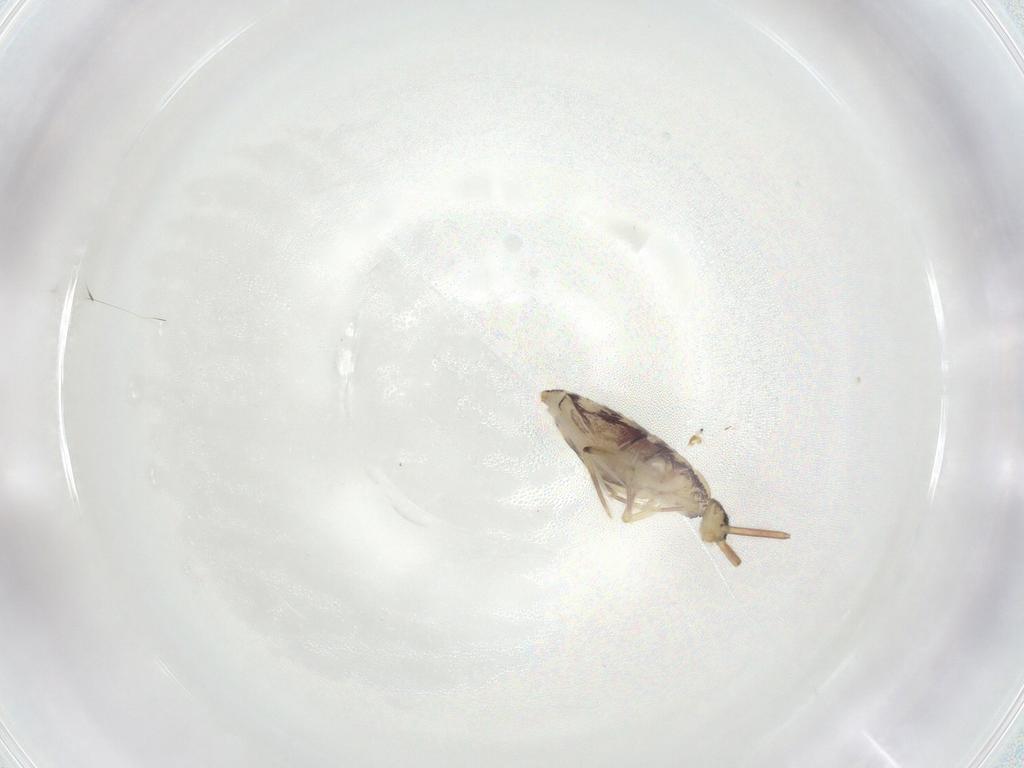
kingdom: Animalia
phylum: Arthropoda
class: Collembola
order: Entomobryomorpha
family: Entomobryidae
